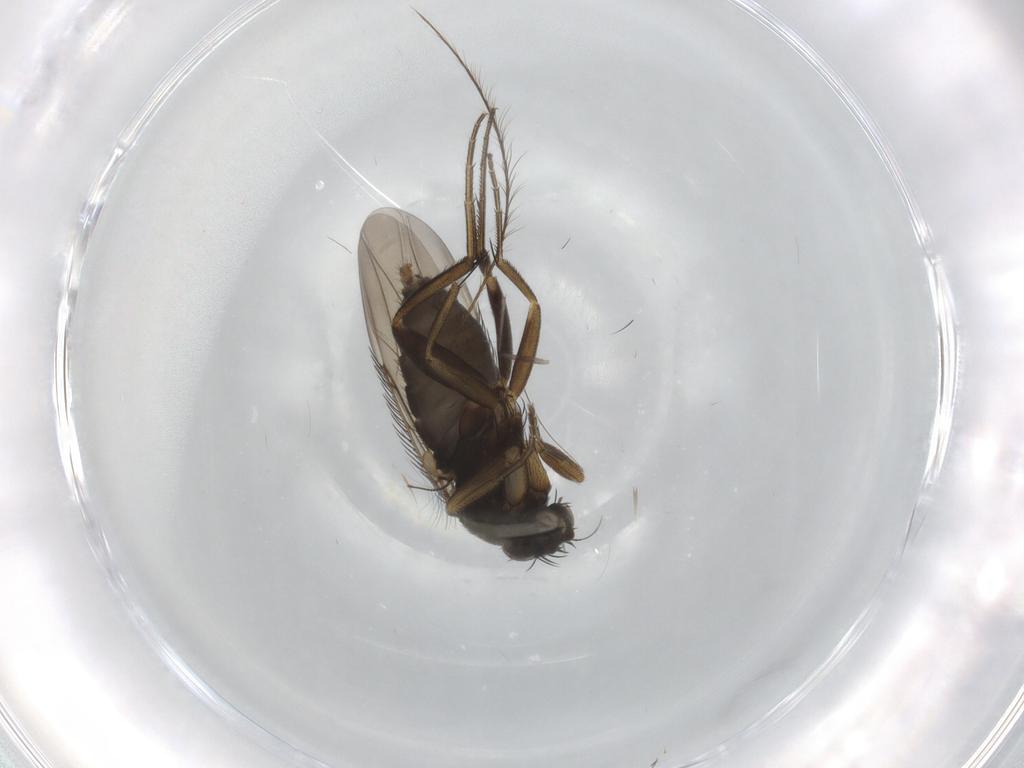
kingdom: Animalia
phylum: Arthropoda
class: Insecta
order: Diptera
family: Phoridae
